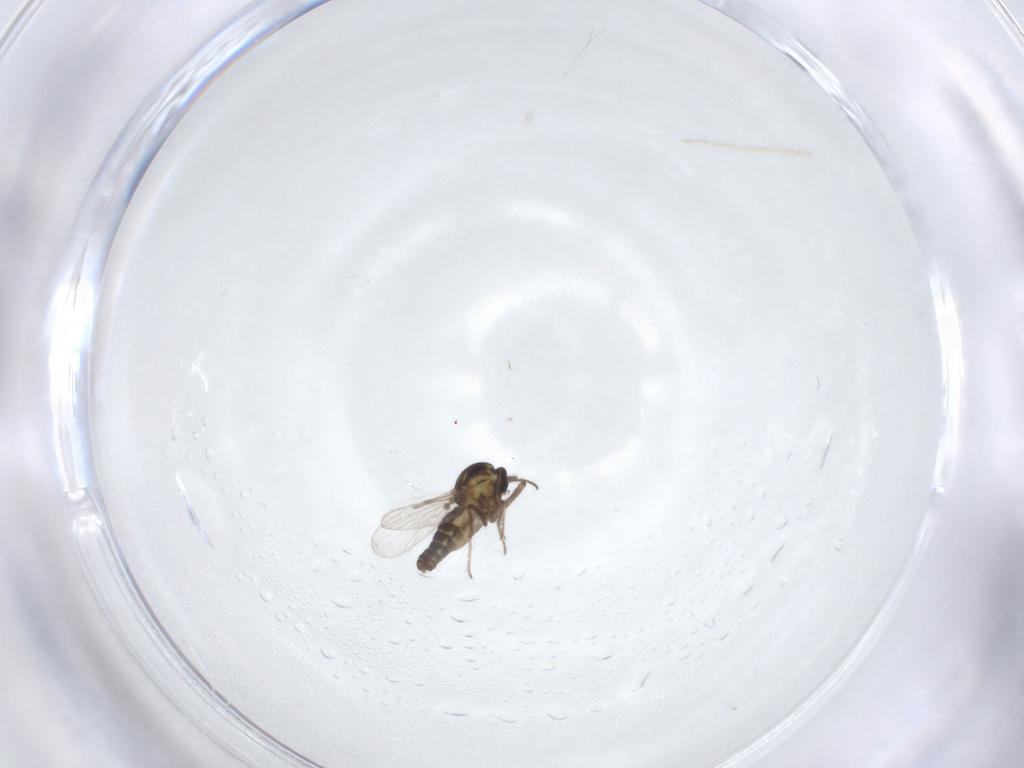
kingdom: Animalia
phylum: Arthropoda
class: Insecta
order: Diptera
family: Ceratopogonidae
